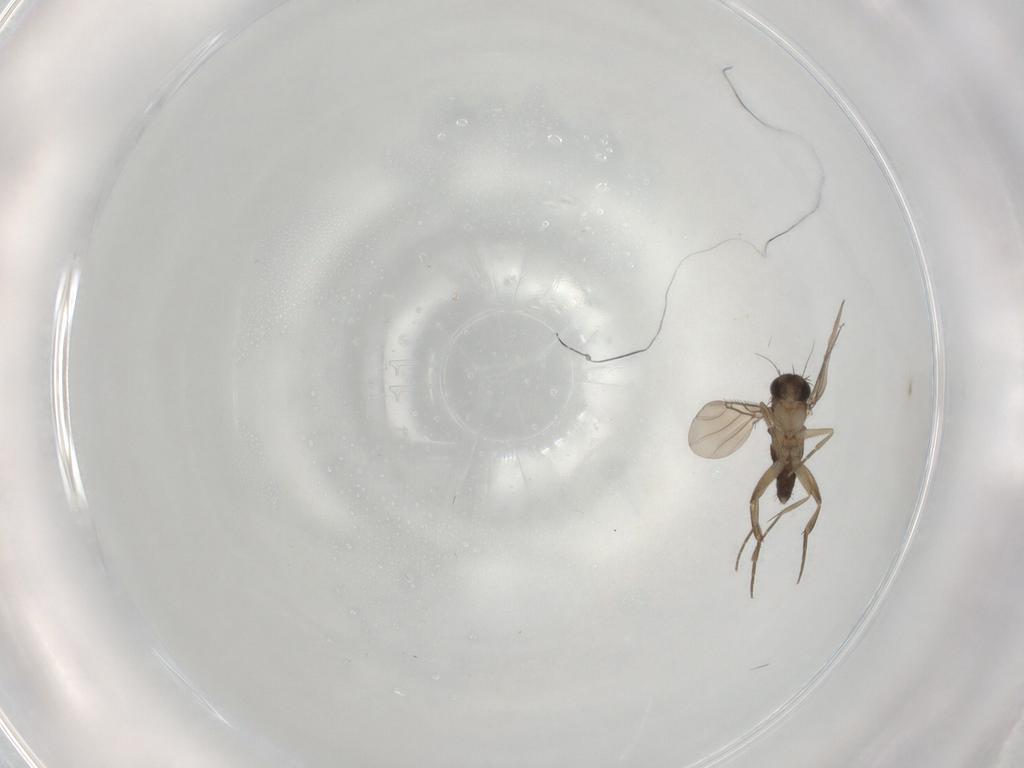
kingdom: Animalia
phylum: Arthropoda
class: Insecta
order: Diptera
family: Phoridae
